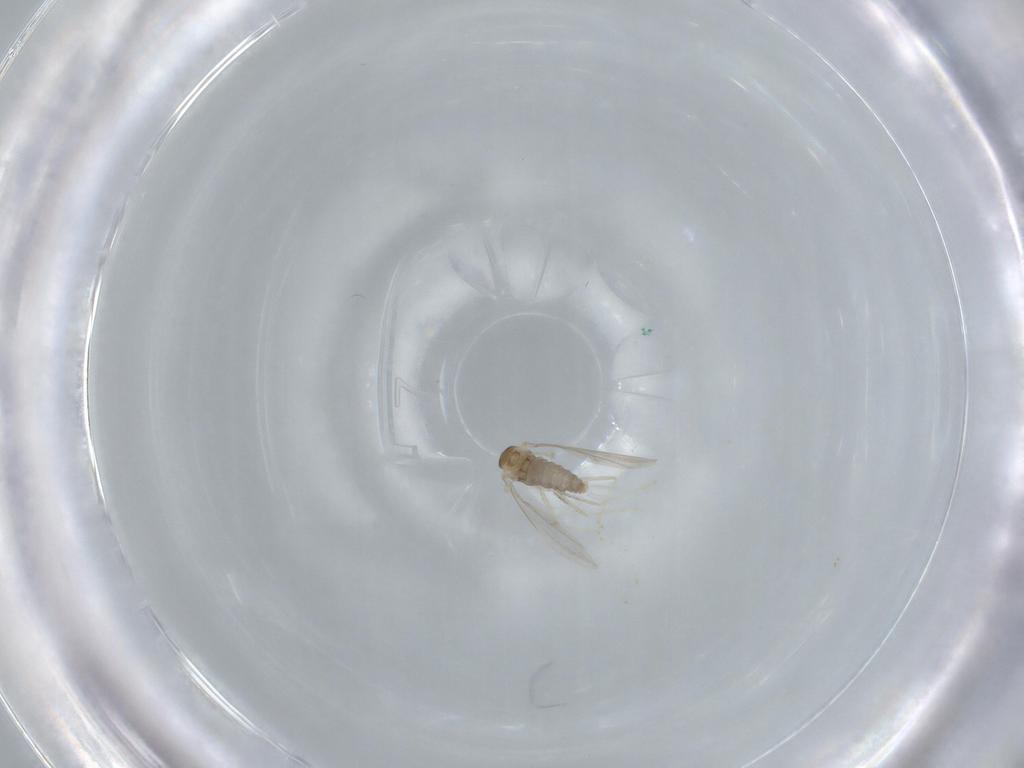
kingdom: Animalia
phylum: Arthropoda
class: Insecta
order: Diptera
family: Cecidomyiidae
